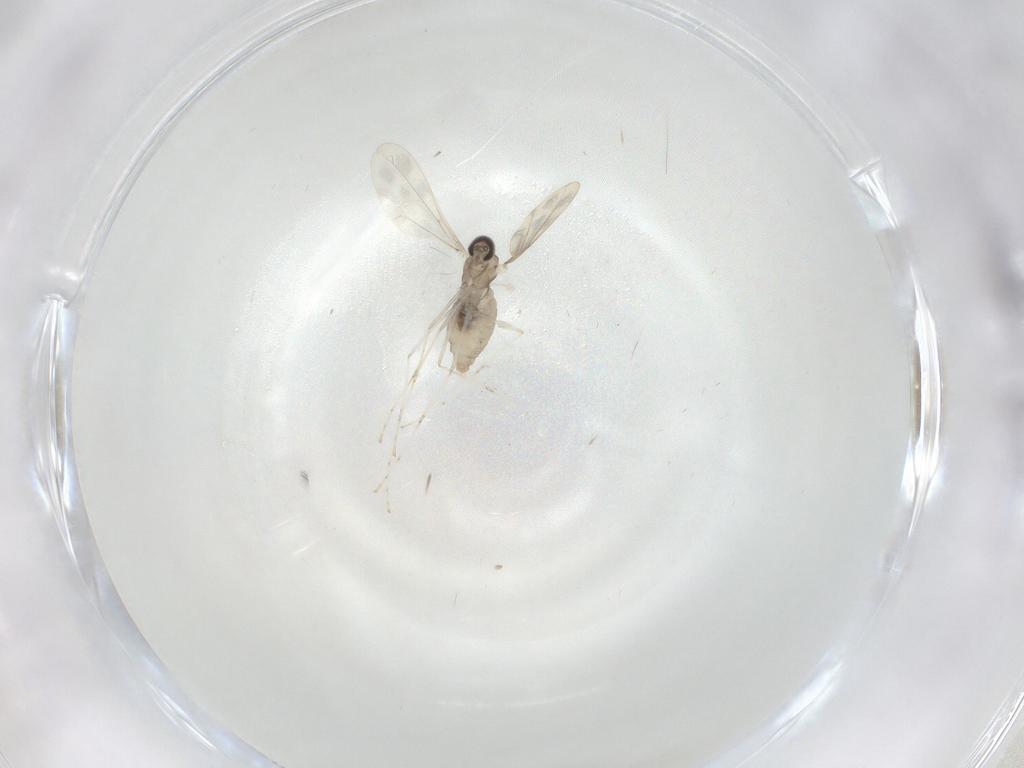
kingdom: Animalia
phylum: Arthropoda
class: Insecta
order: Diptera
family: Cecidomyiidae
